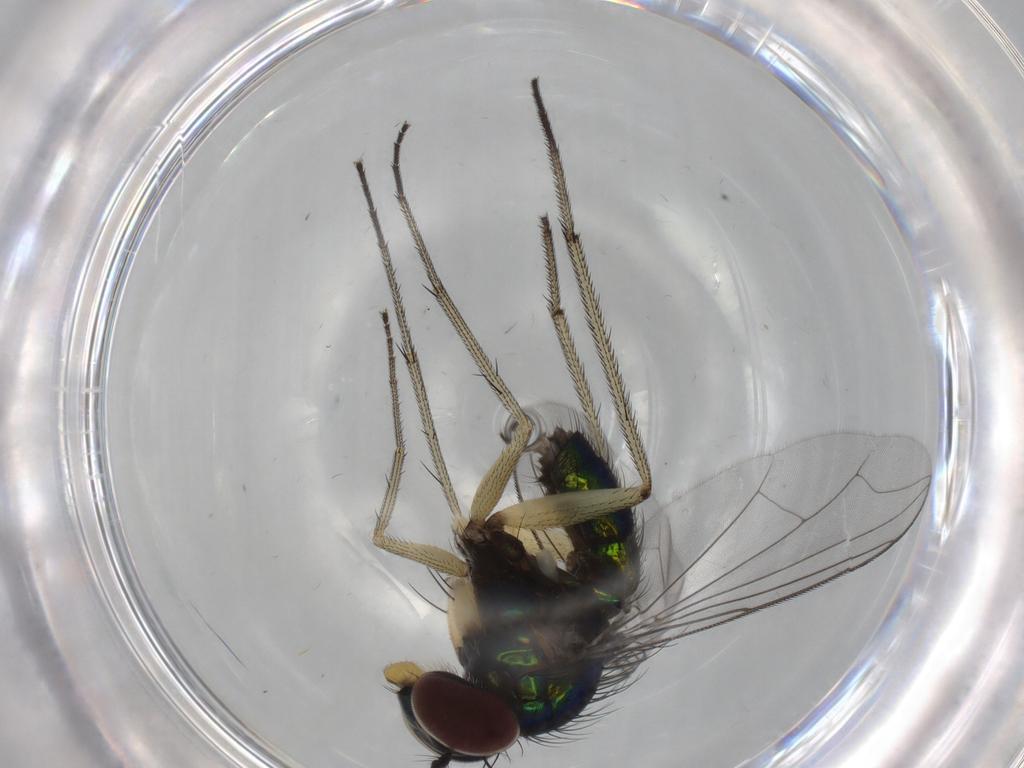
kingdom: Animalia
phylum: Arthropoda
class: Insecta
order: Diptera
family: Dolichopodidae
